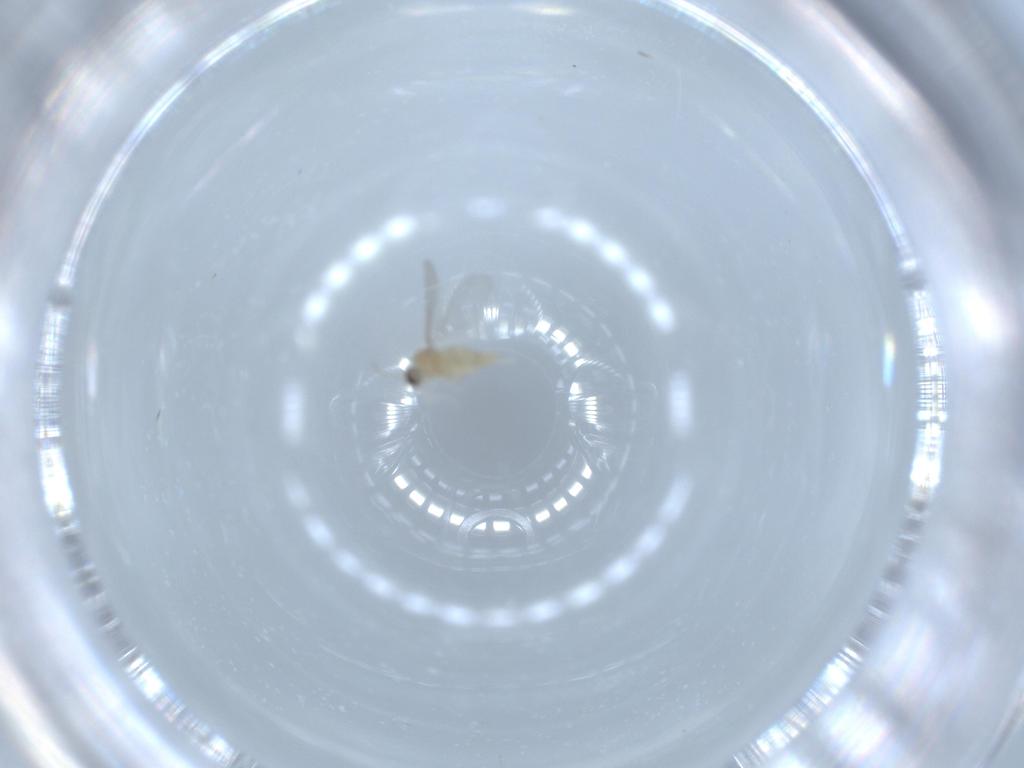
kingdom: Animalia
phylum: Arthropoda
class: Insecta
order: Diptera
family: Cecidomyiidae
